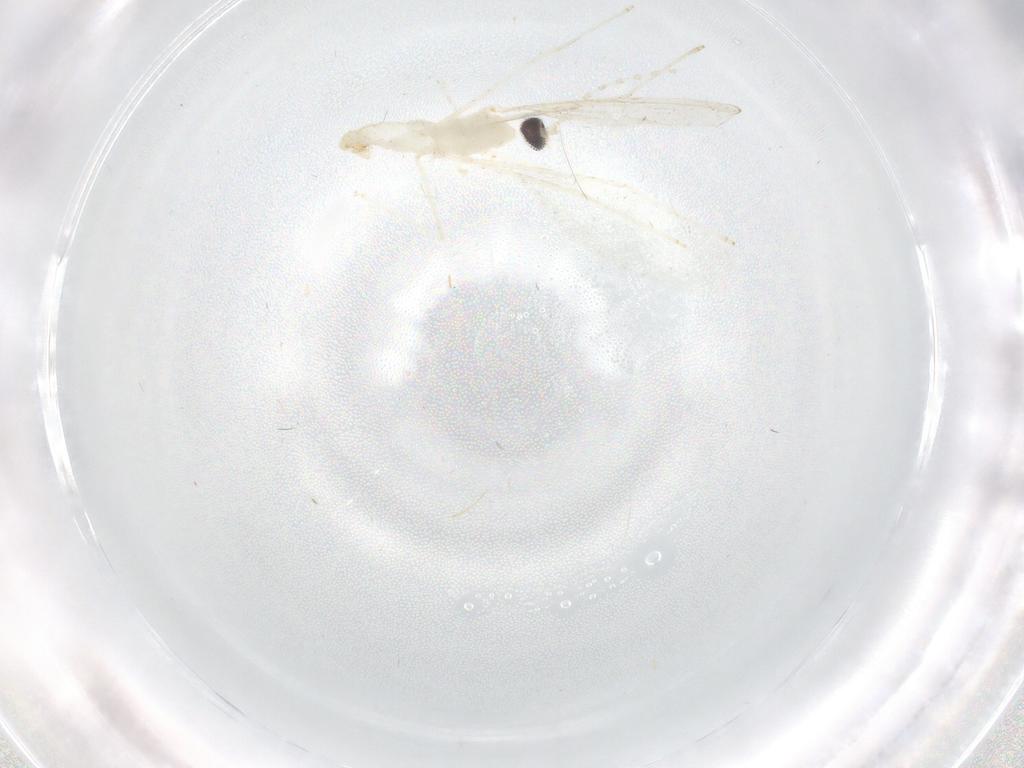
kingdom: Animalia
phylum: Arthropoda
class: Insecta
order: Diptera
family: Cecidomyiidae
